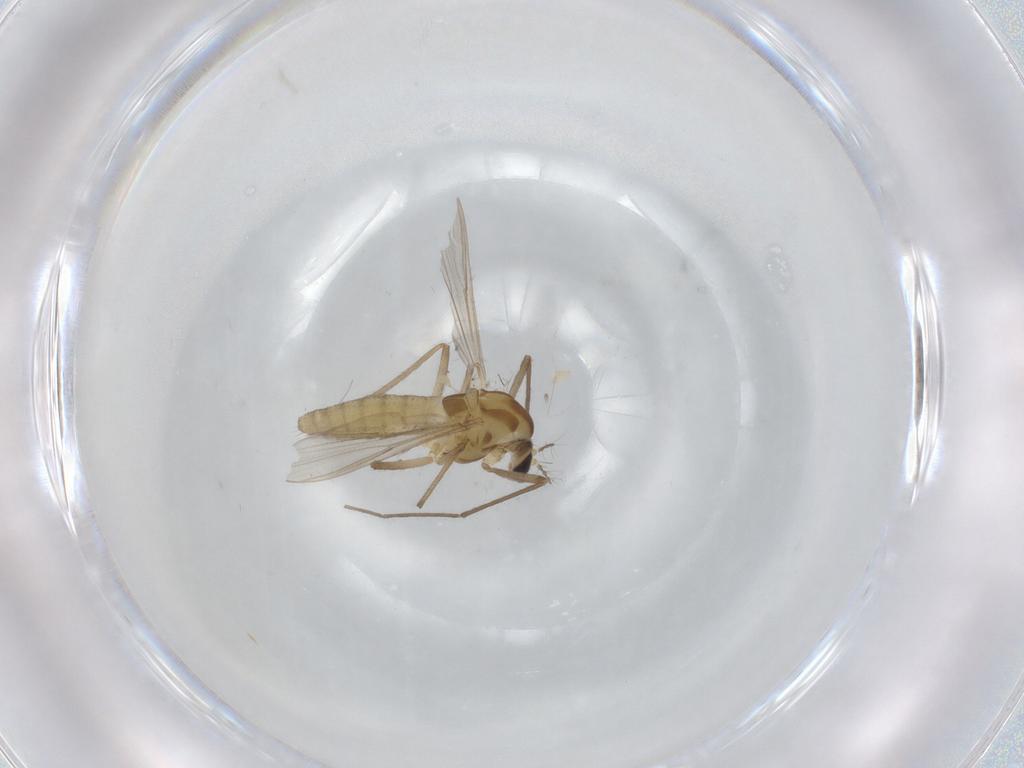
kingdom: Animalia
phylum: Arthropoda
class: Insecta
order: Diptera
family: Chironomidae
